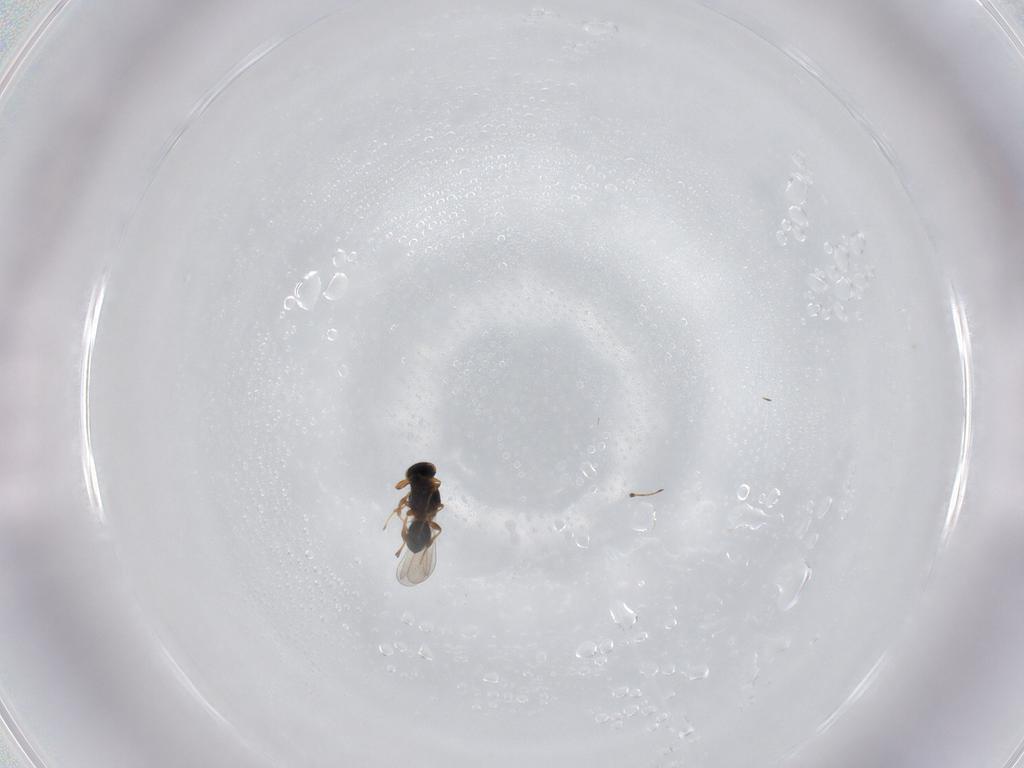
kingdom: Animalia
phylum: Arthropoda
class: Insecta
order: Hymenoptera
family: Platygastridae
